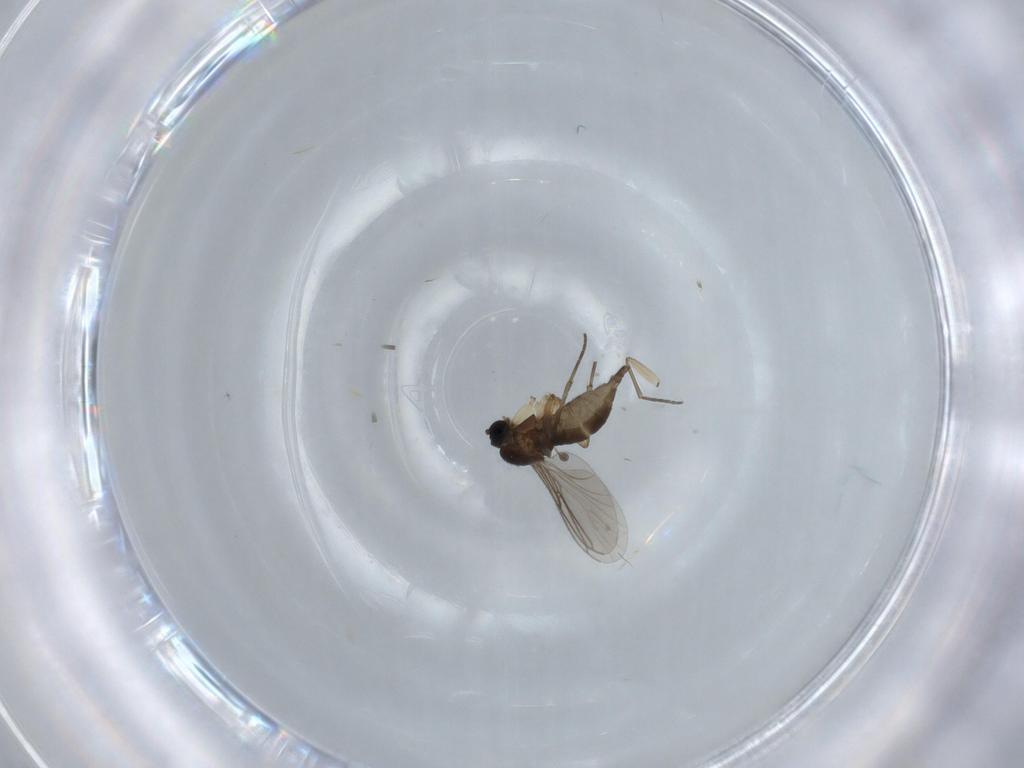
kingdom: Animalia
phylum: Arthropoda
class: Insecta
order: Diptera
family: Sciaridae
